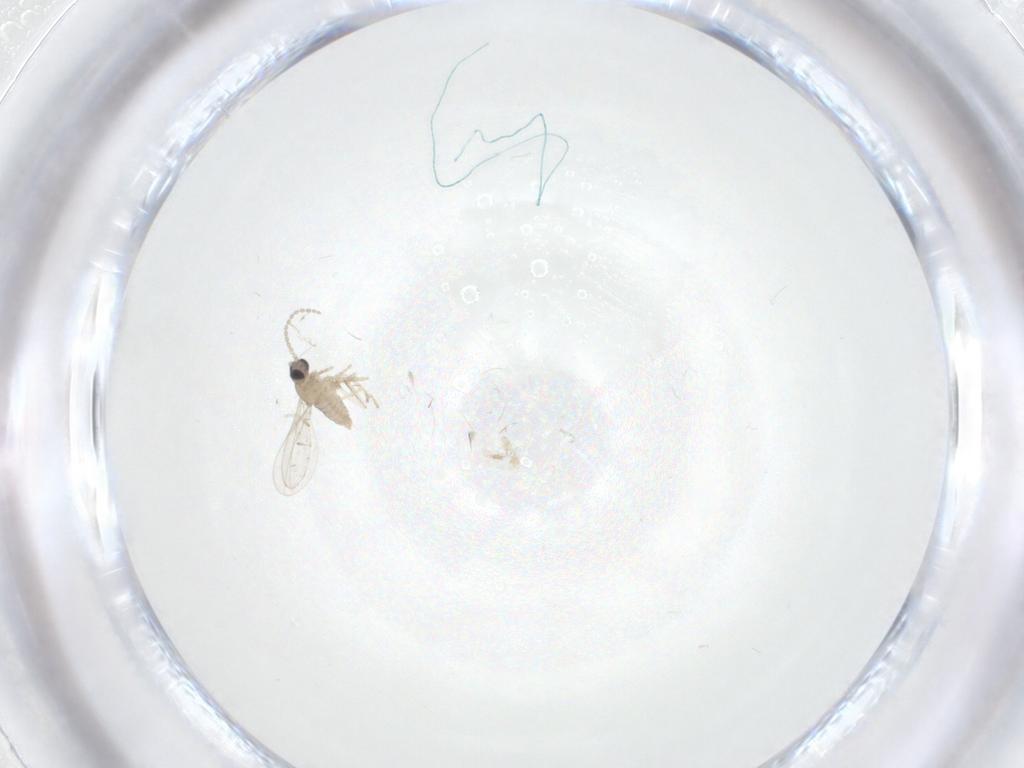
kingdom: Animalia
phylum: Arthropoda
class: Insecta
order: Diptera
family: Cecidomyiidae
